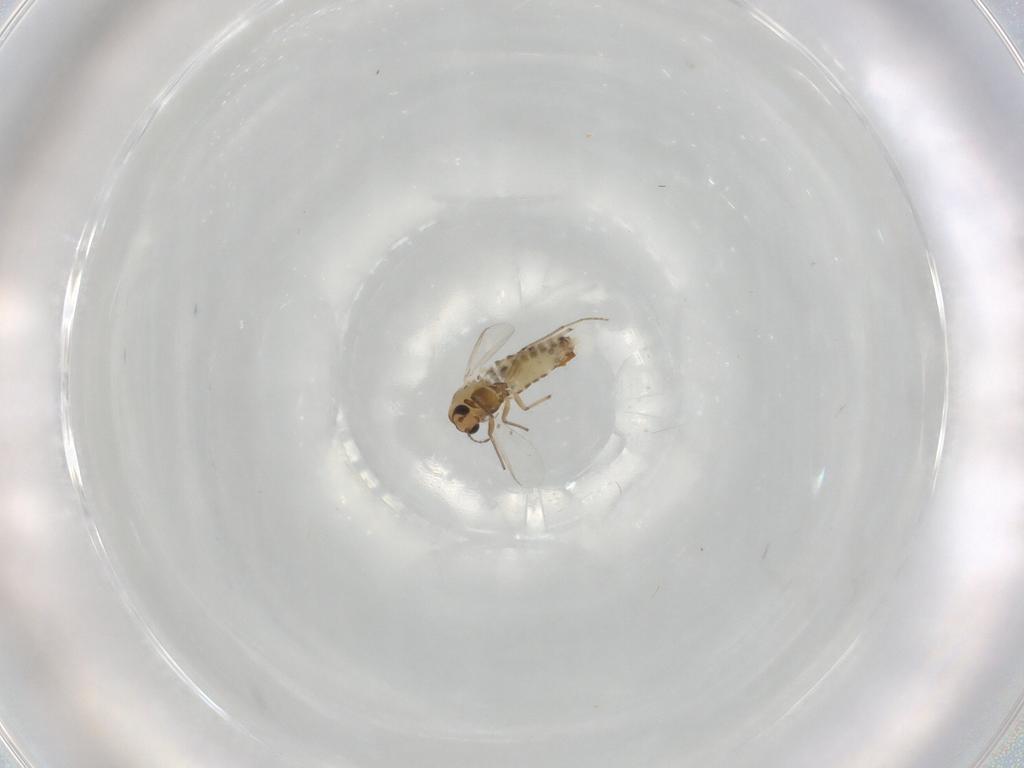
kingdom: Animalia
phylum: Arthropoda
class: Insecta
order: Diptera
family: Chironomidae
